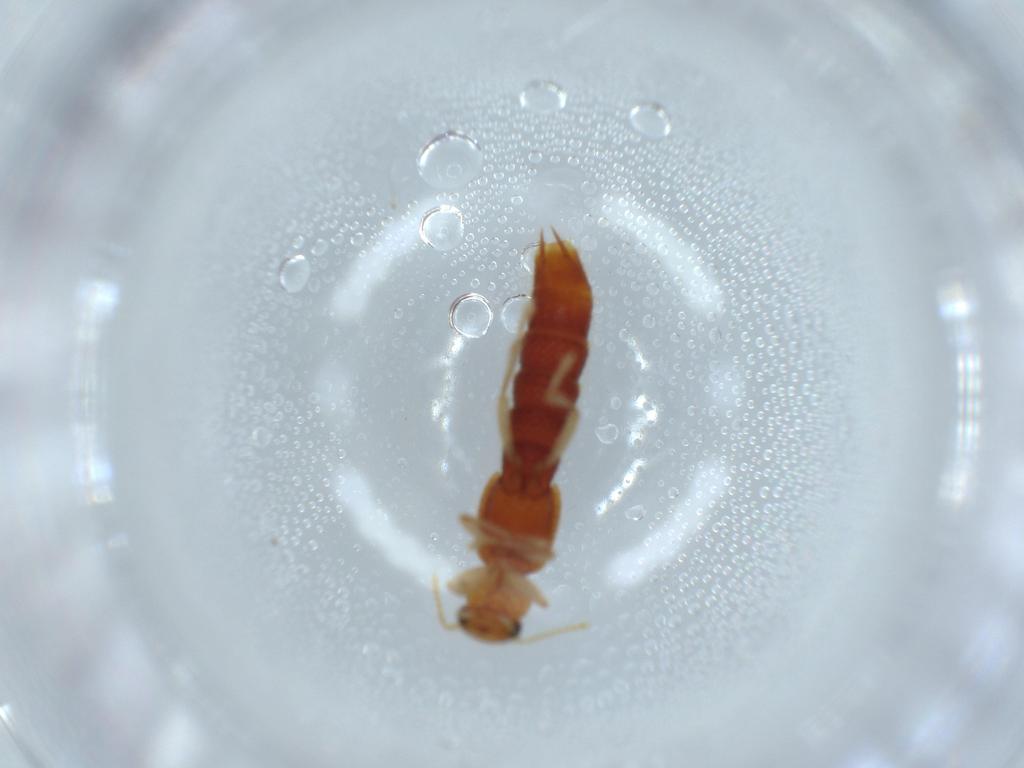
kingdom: Animalia
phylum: Arthropoda
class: Insecta
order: Coleoptera
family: Staphylinidae
